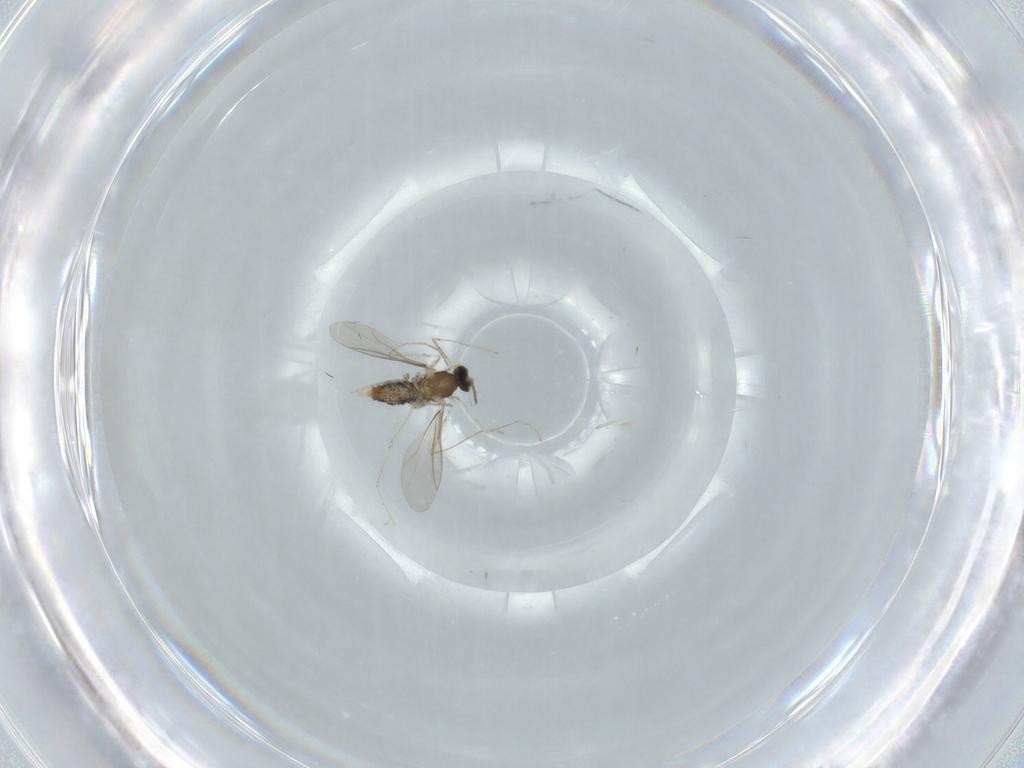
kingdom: Animalia
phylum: Arthropoda
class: Insecta
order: Diptera
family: Cecidomyiidae
